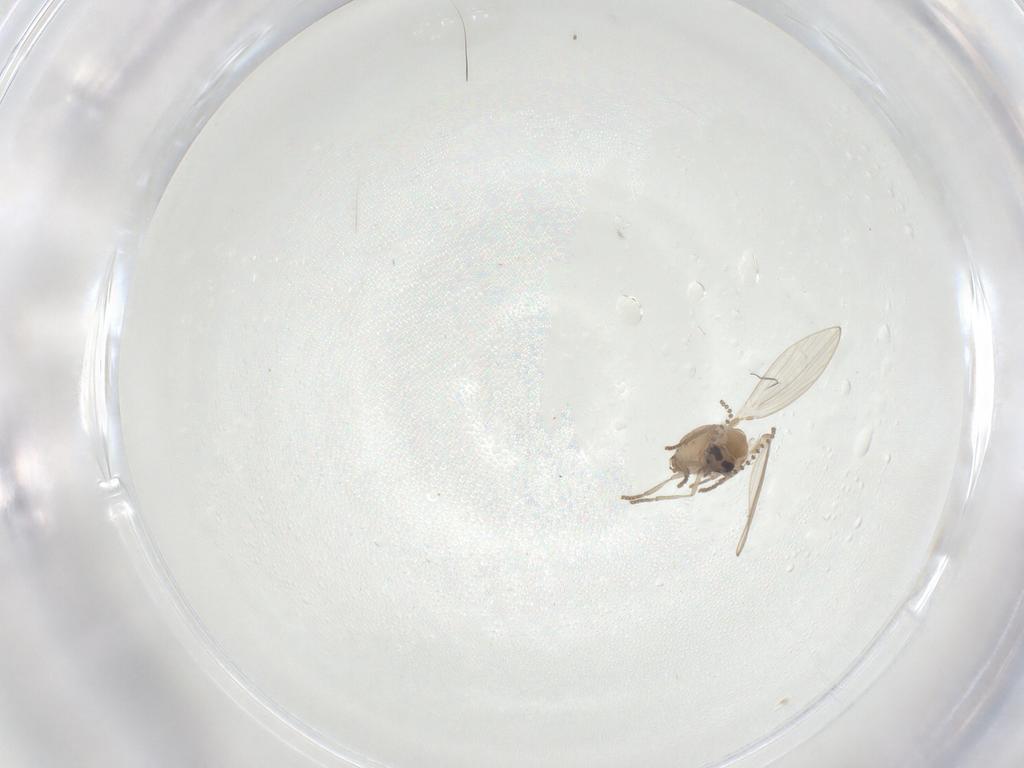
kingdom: Animalia
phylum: Arthropoda
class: Insecta
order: Diptera
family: Psychodidae
